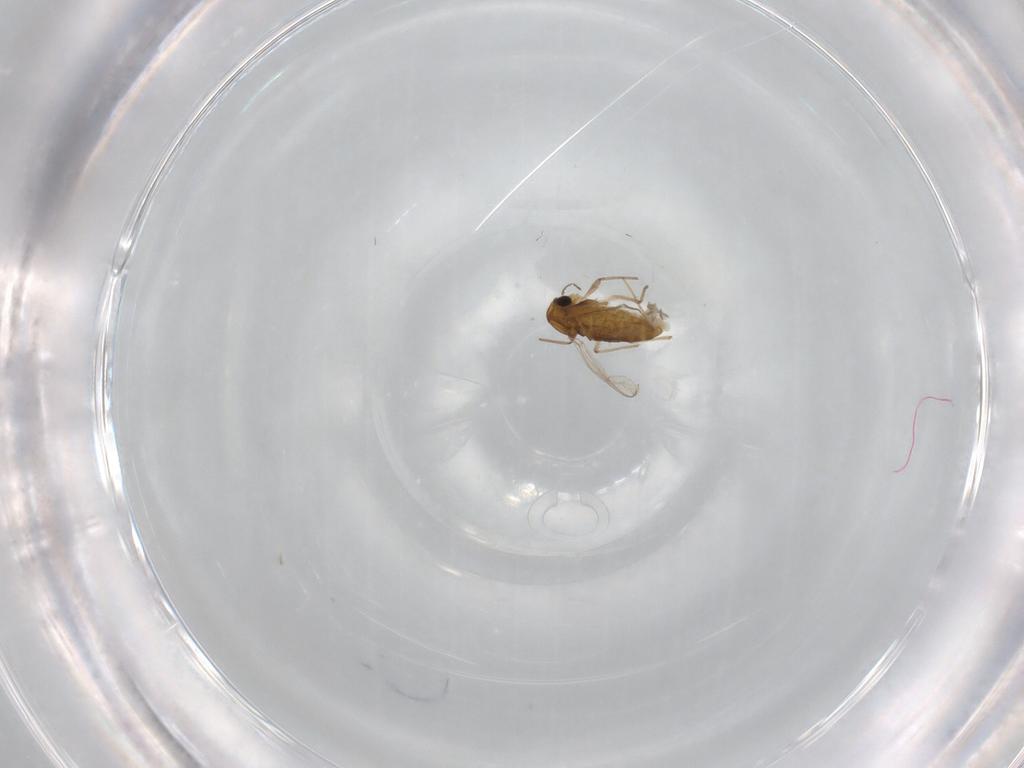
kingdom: Animalia
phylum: Arthropoda
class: Insecta
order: Diptera
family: Chironomidae
